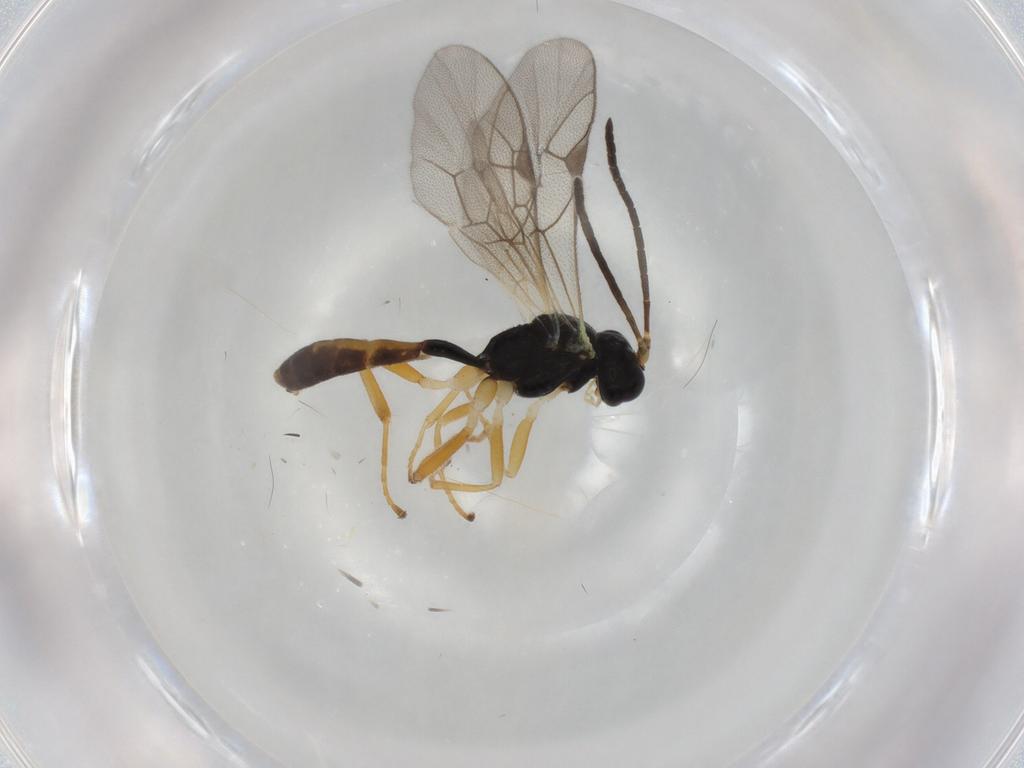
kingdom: Animalia
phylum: Arthropoda
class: Insecta
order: Hymenoptera
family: Ichneumonidae
